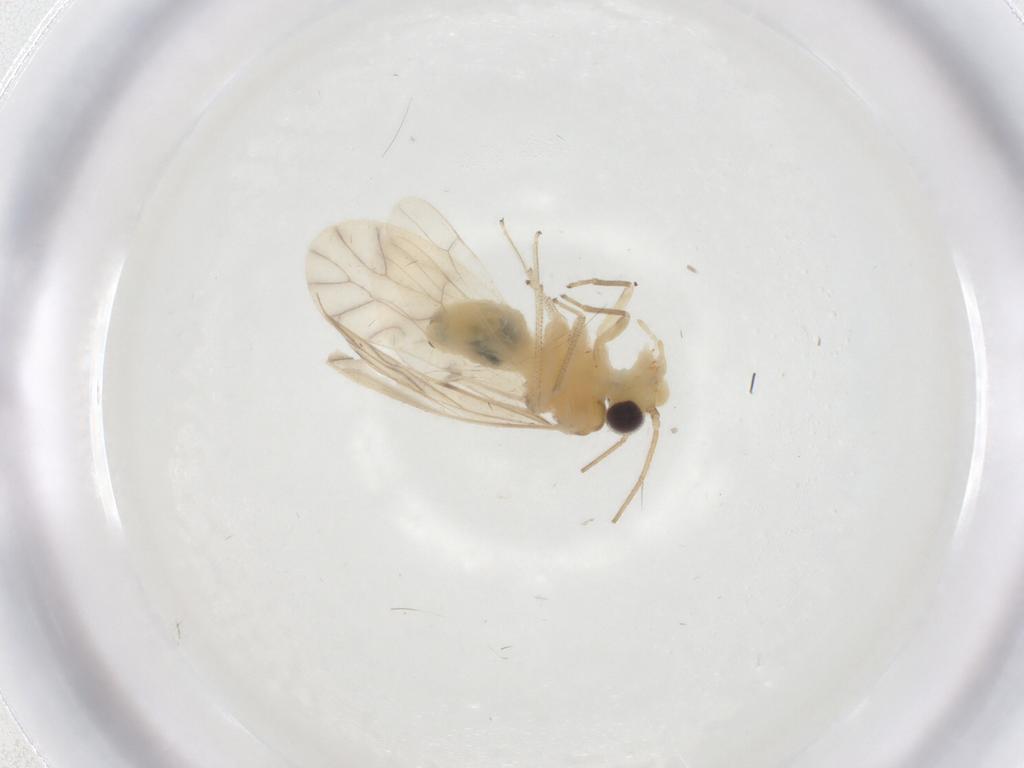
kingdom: Animalia
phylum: Arthropoda
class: Insecta
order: Psocodea
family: Caeciliusidae
